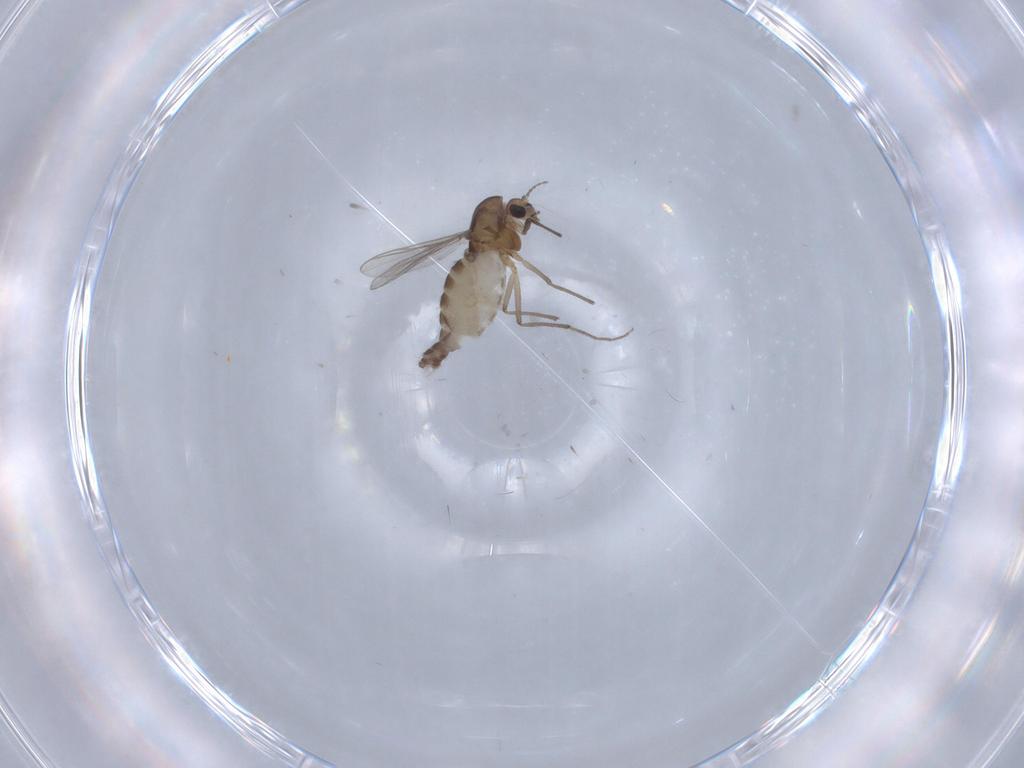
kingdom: Animalia
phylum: Arthropoda
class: Insecta
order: Diptera
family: Chironomidae
